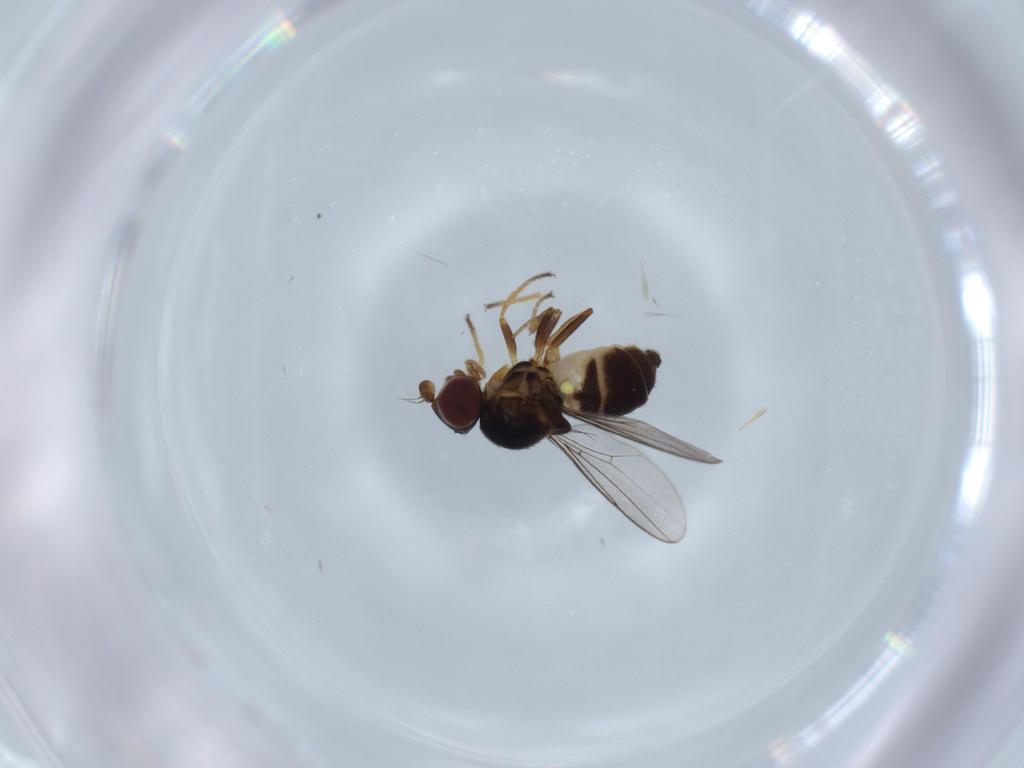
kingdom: Animalia
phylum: Arthropoda
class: Insecta
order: Diptera
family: Chloropidae
